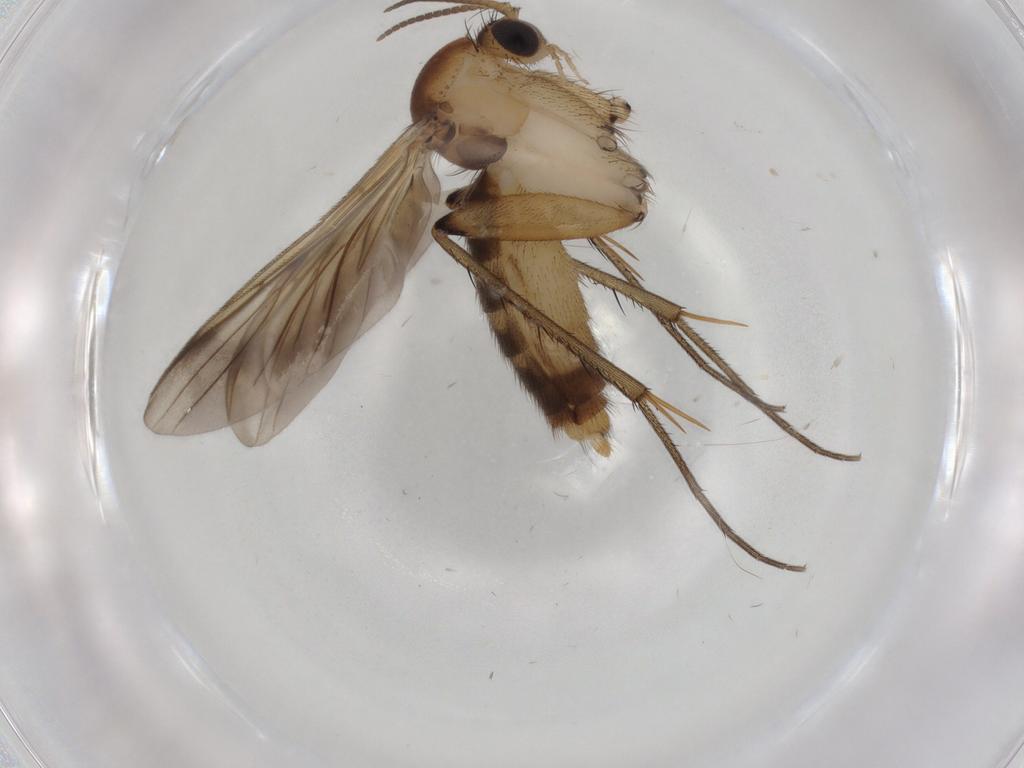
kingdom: Animalia
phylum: Arthropoda
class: Insecta
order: Diptera
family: Mycetophilidae
